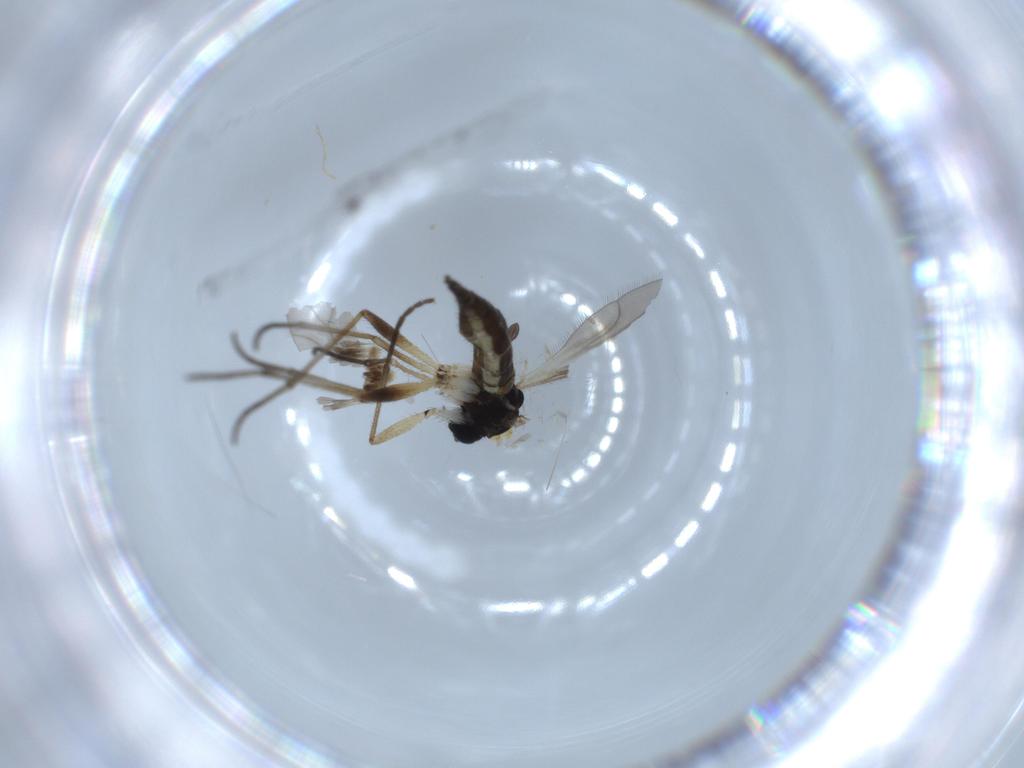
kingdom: Animalia
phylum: Arthropoda
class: Insecta
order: Diptera
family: Sciaridae
